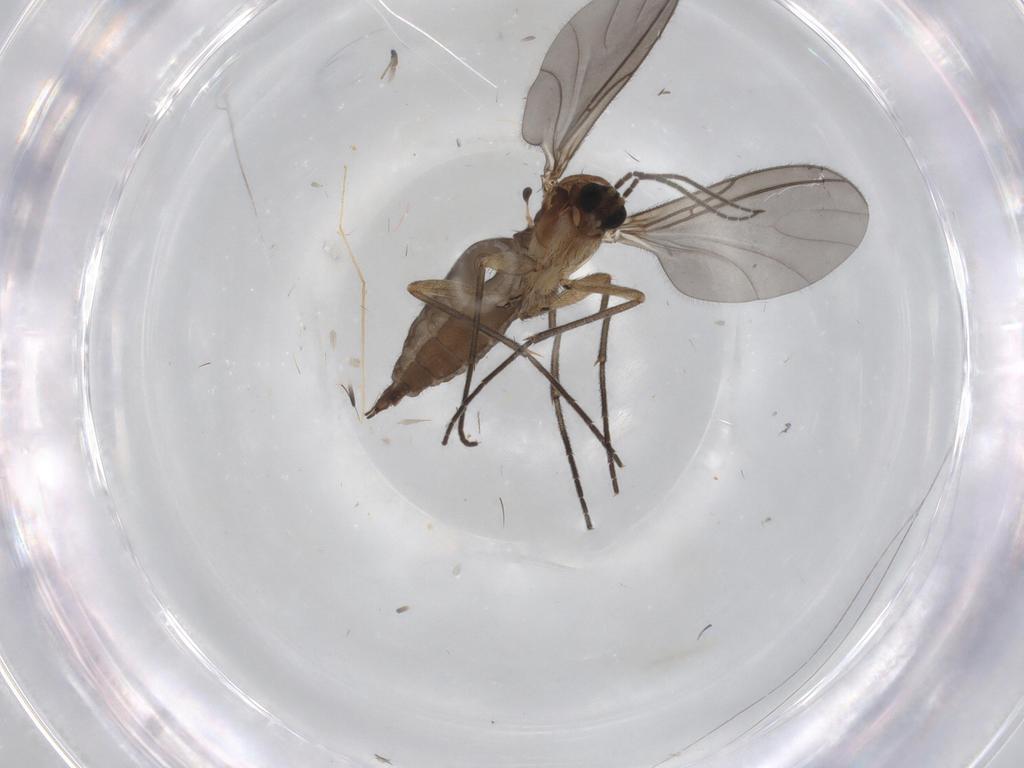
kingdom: Animalia
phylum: Arthropoda
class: Insecta
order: Diptera
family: Sciaridae
